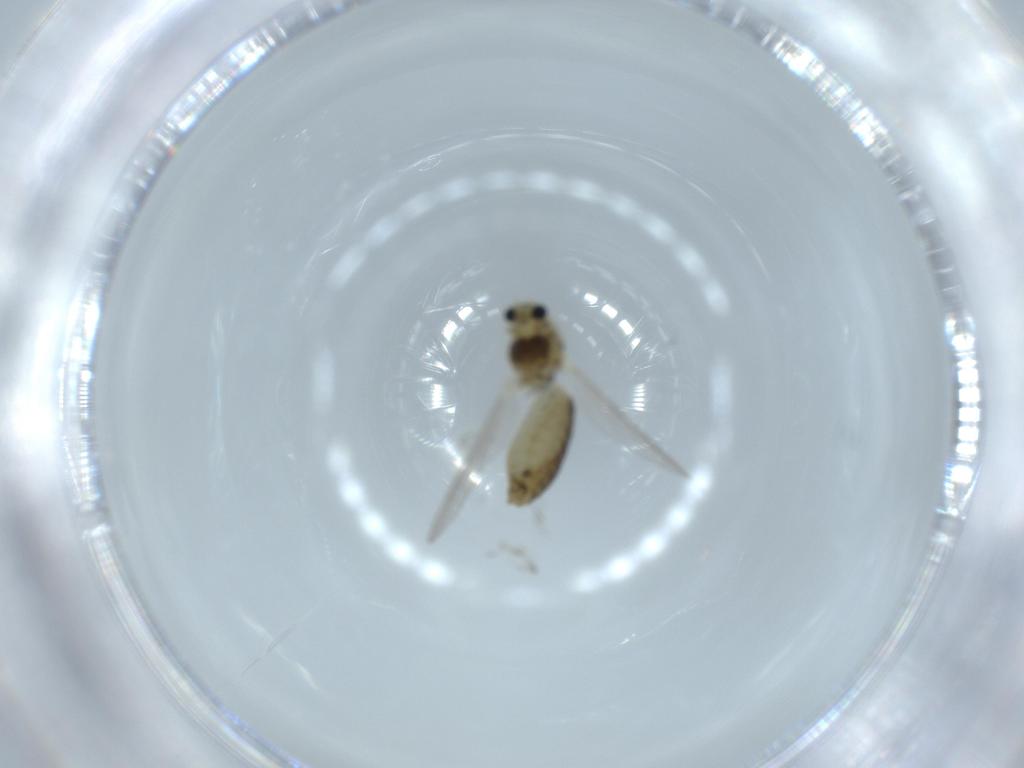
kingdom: Animalia
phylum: Arthropoda
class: Insecta
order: Diptera
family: Chironomidae
